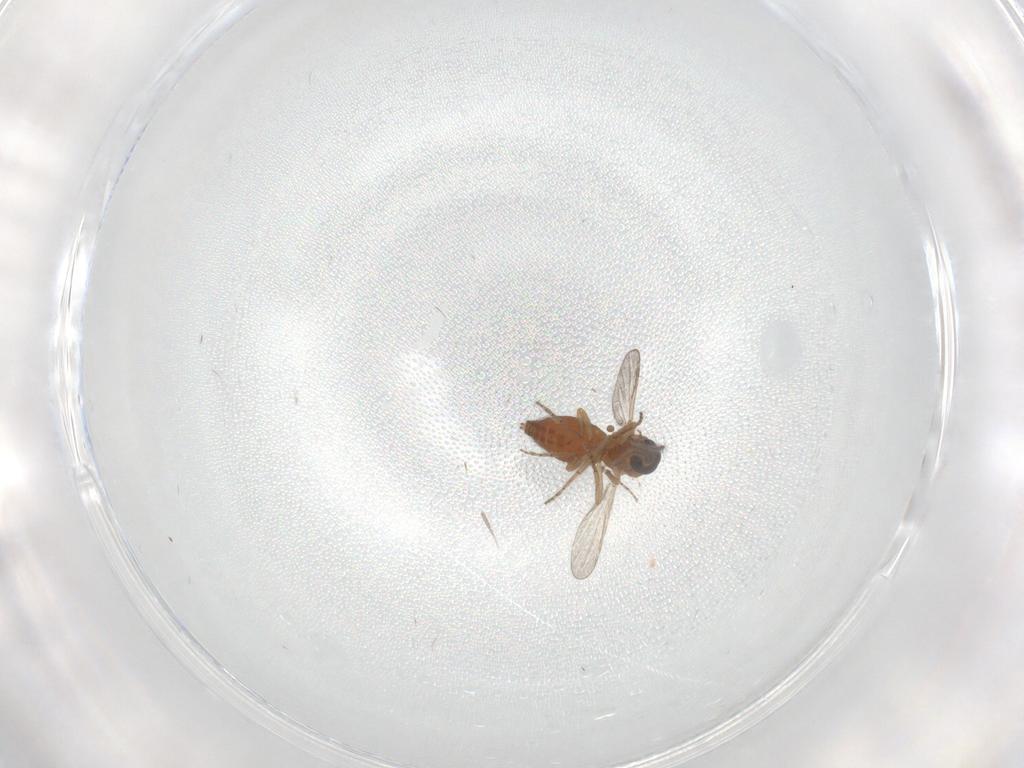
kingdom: Animalia
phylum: Arthropoda
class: Insecta
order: Diptera
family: Ceratopogonidae
